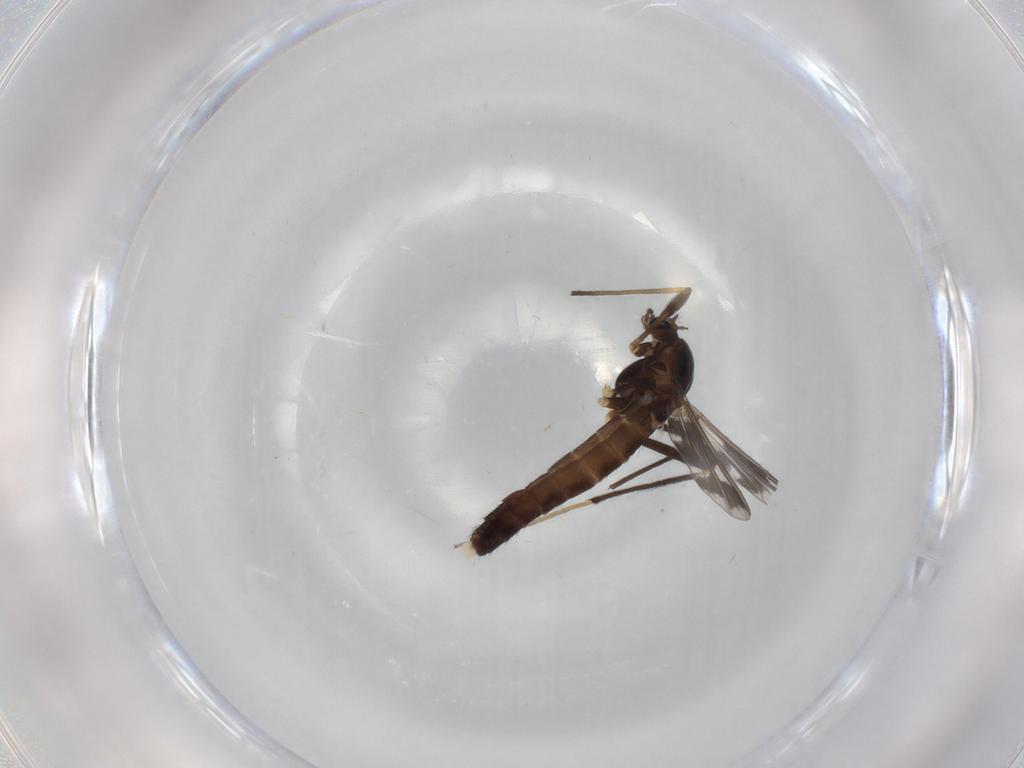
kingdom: Animalia
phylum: Arthropoda
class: Insecta
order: Diptera
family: Chironomidae
